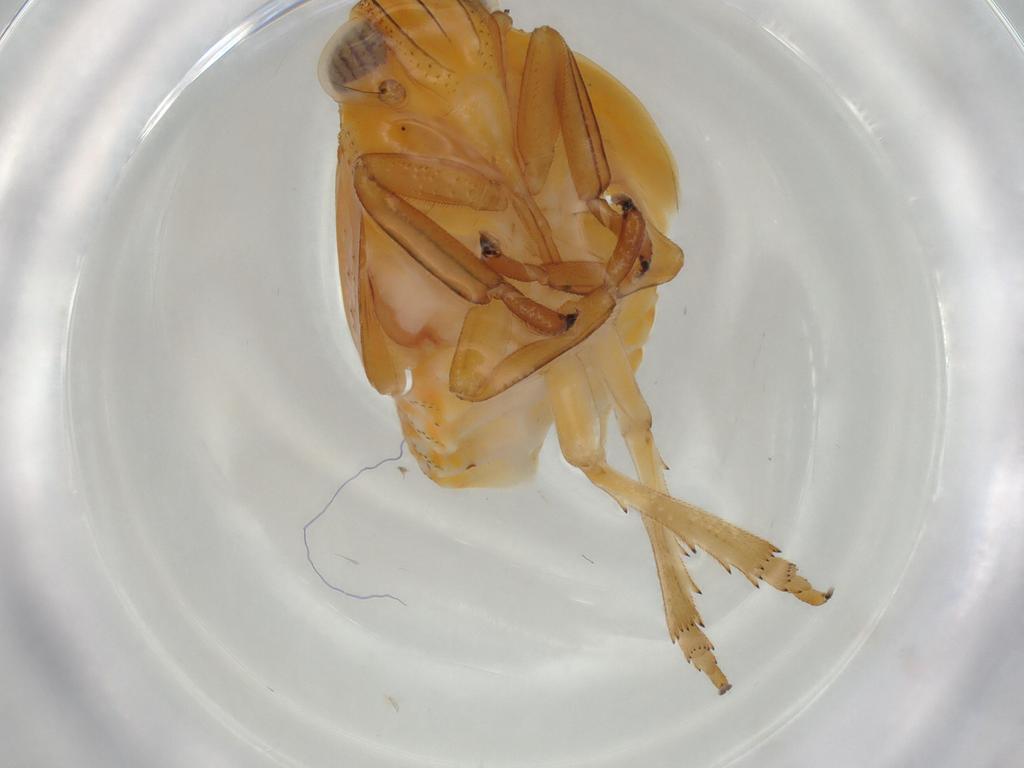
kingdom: Animalia
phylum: Arthropoda
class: Insecta
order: Hemiptera
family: Issidae
